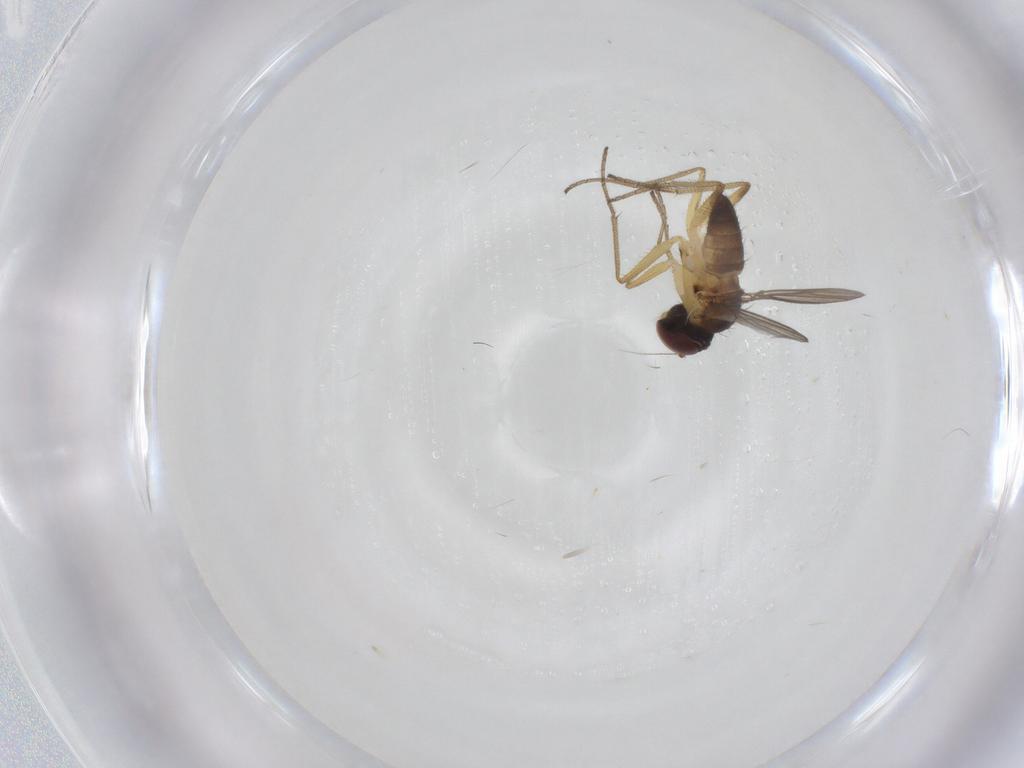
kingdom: Animalia
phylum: Arthropoda
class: Insecta
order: Diptera
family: Dolichopodidae
